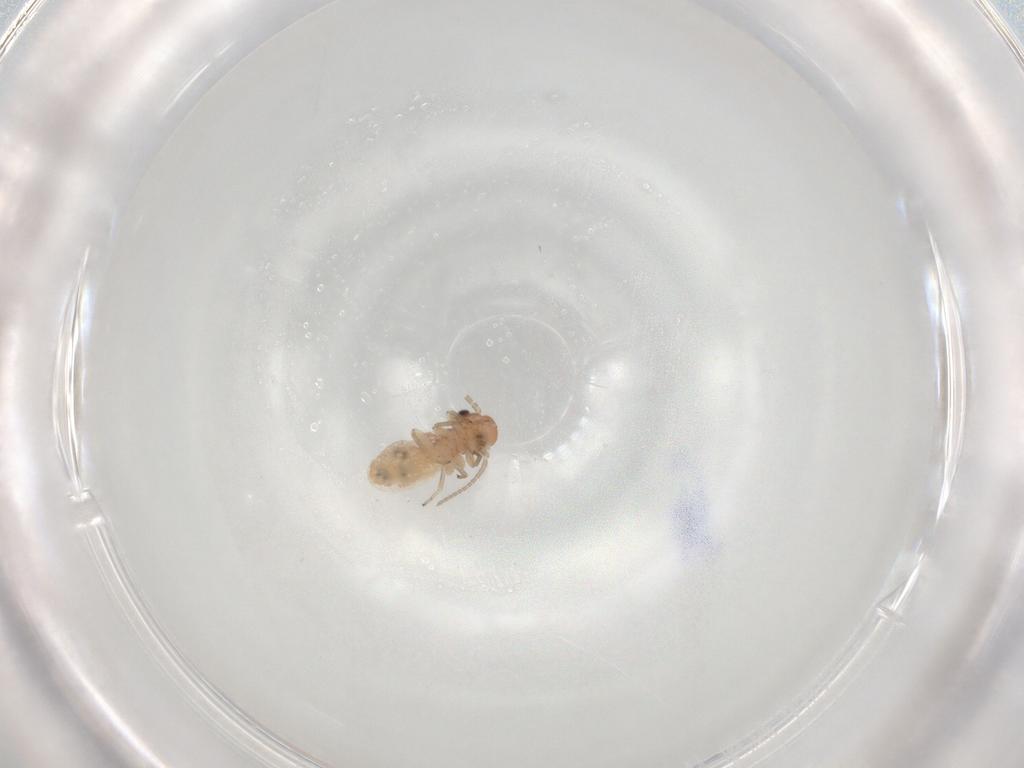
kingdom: Animalia
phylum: Arthropoda
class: Insecta
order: Psocodea
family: Caeciliusidae
